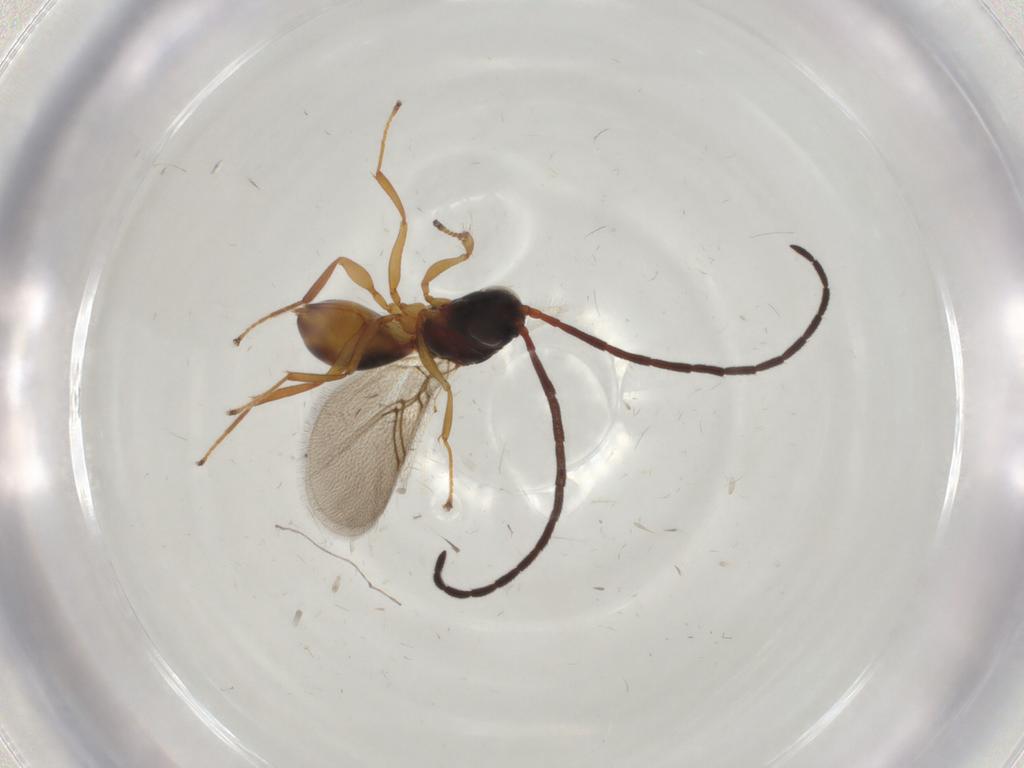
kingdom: Animalia
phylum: Arthropoda
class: Insecta
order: Hymenoptera
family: Figitidae
